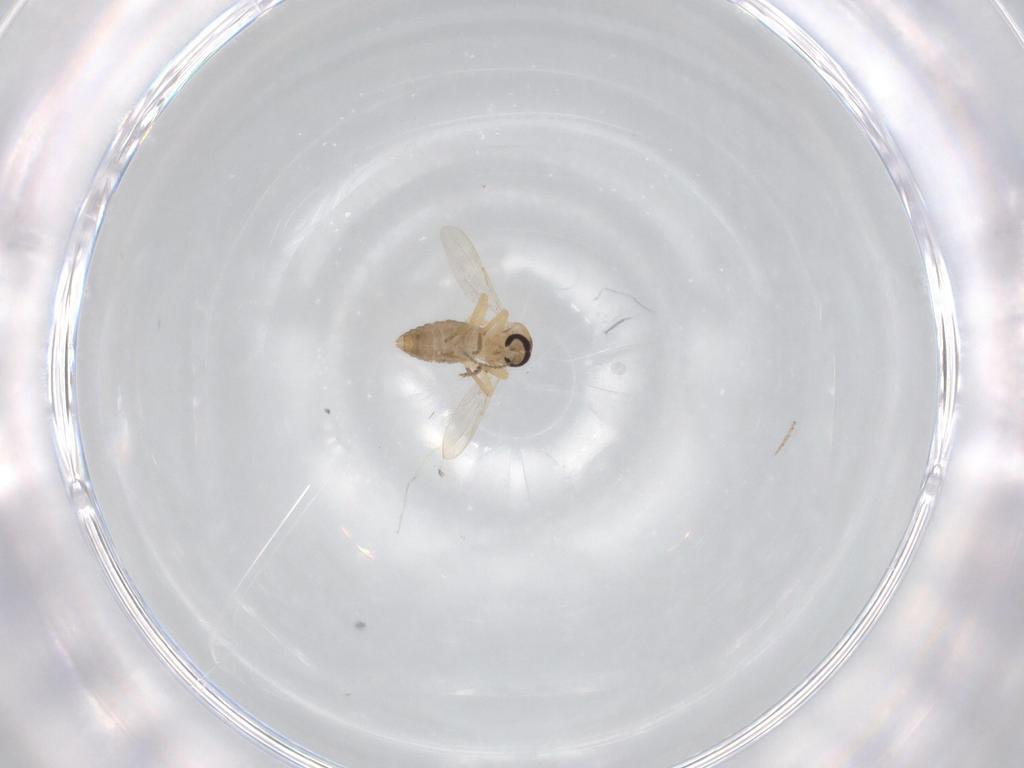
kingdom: Animalia
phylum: Arthropoda
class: Insecta
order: Diptera
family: Ceratopogonidae
